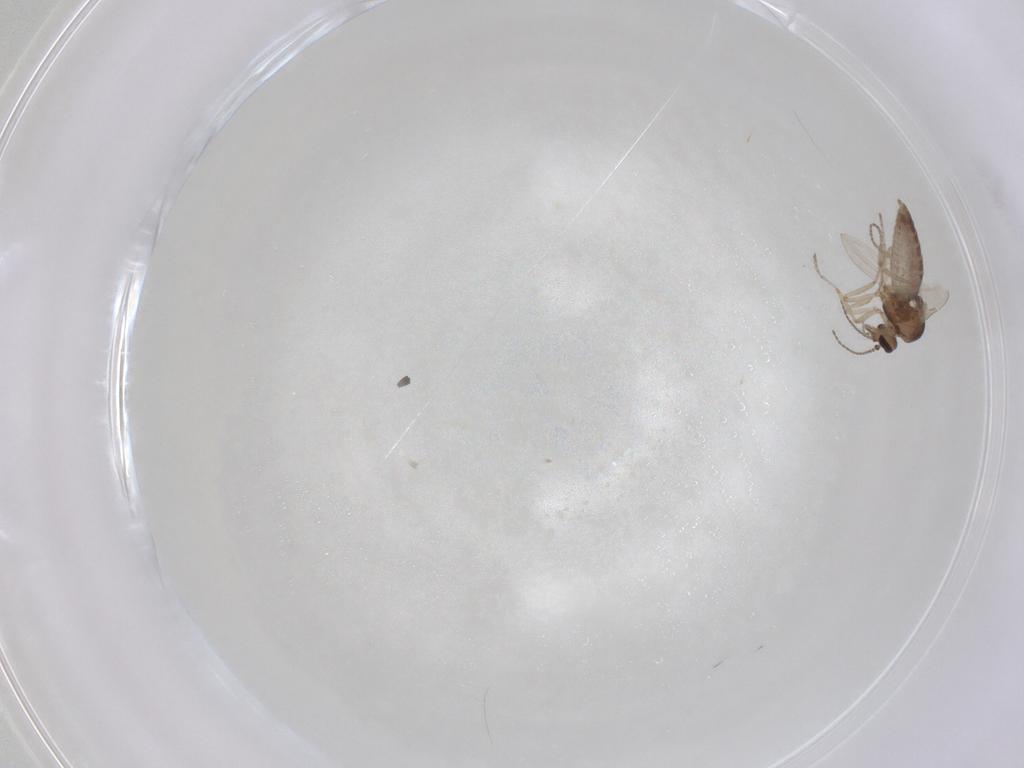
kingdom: Animalia
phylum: Arthropoda
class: Insecta
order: Diptera
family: Ceratopogonidae
